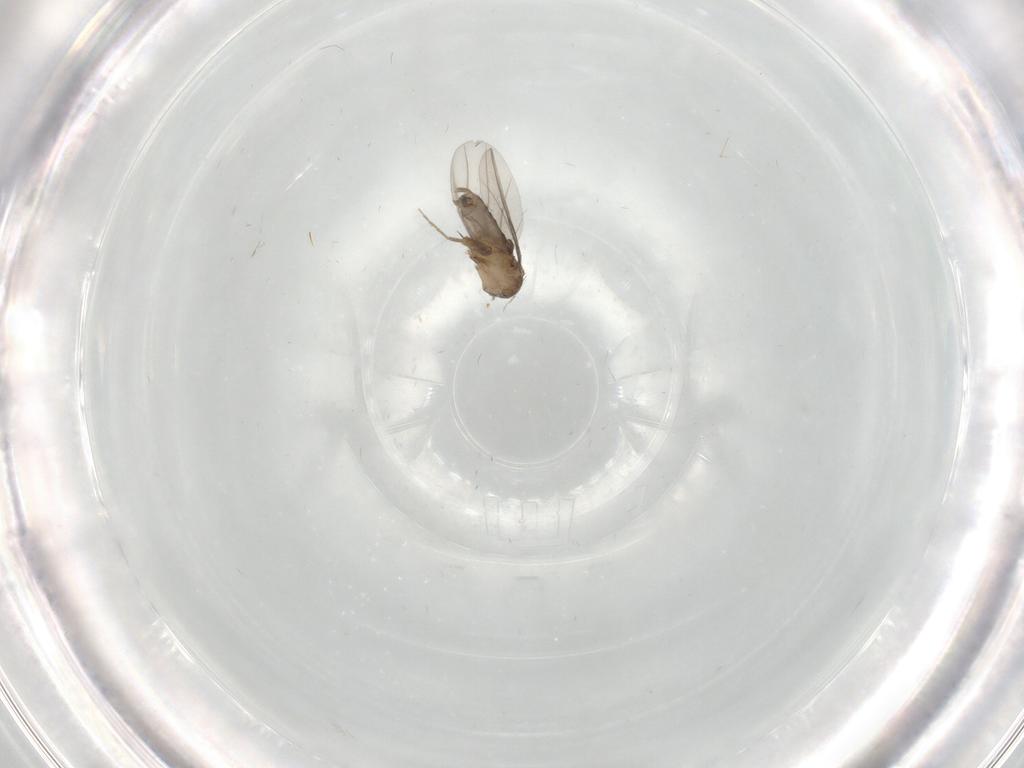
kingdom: Animalia
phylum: Arthropoda
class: Insecta
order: Diptera
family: Cecidomyiidae
